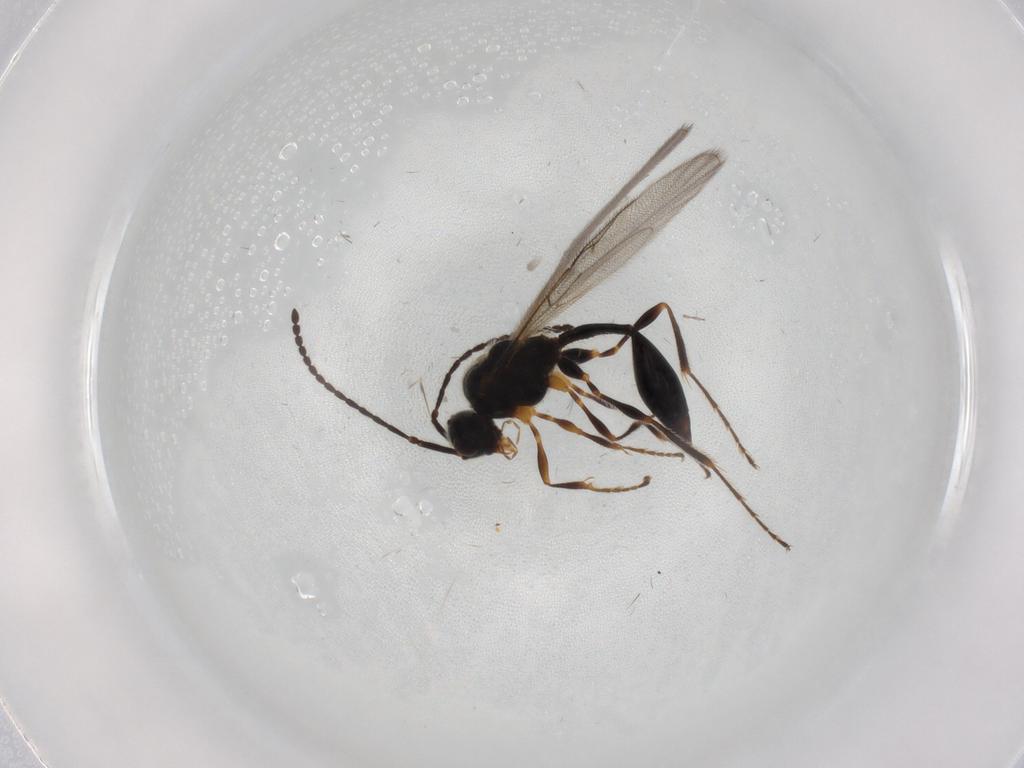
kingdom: Animalia
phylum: Arthropoda
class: Insecta
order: Hymenoptera
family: Diapriidae
